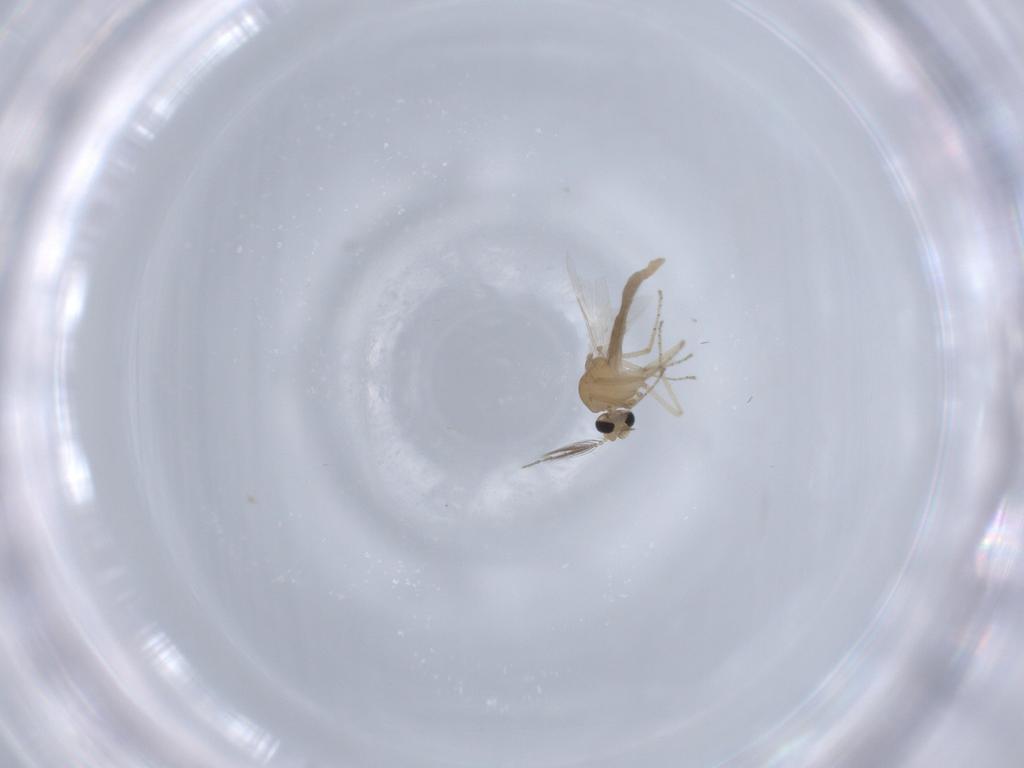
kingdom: Animalia
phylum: Arthropoda
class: Insecta
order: Diptera
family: Ceratopogonidae
